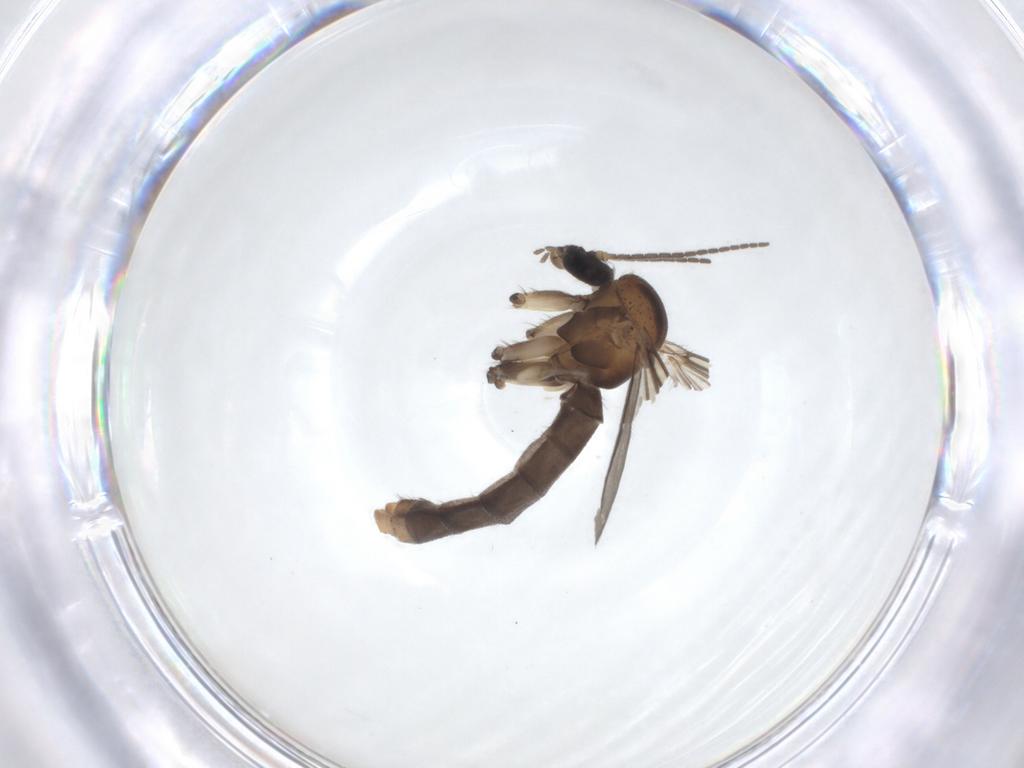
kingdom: Animalia
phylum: Arthropoda
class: Insecta
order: Diptera
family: Mycetophilidae
